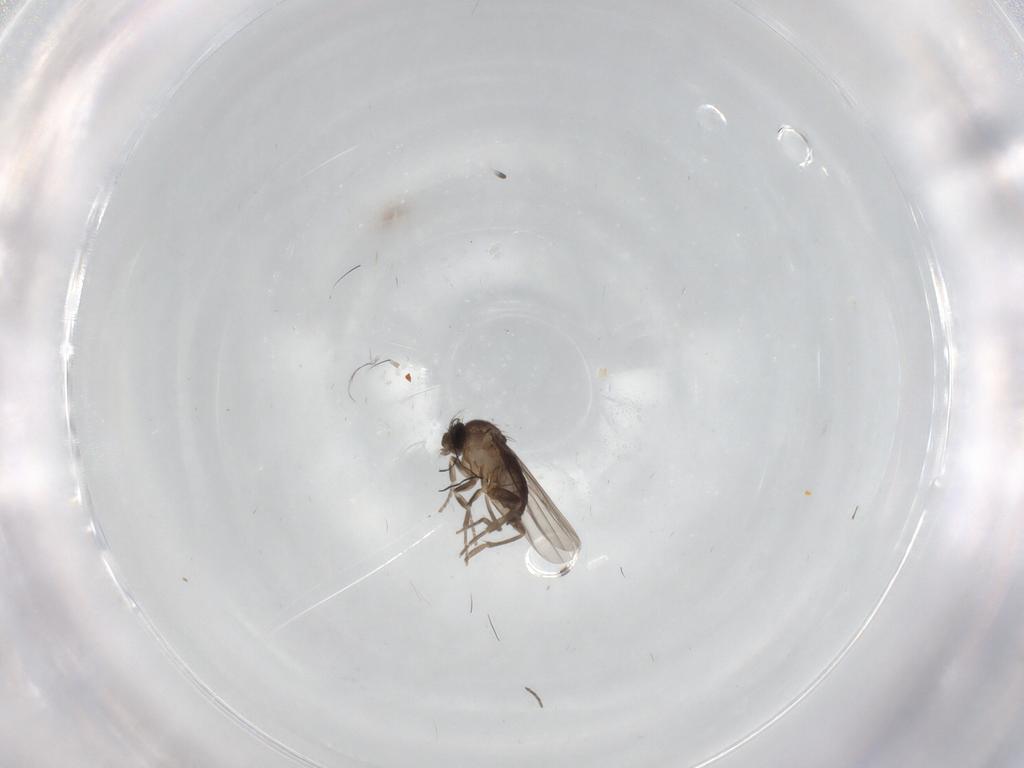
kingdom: Animalia
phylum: Arthropoda
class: Insecta
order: Diptera
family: Phoridae
